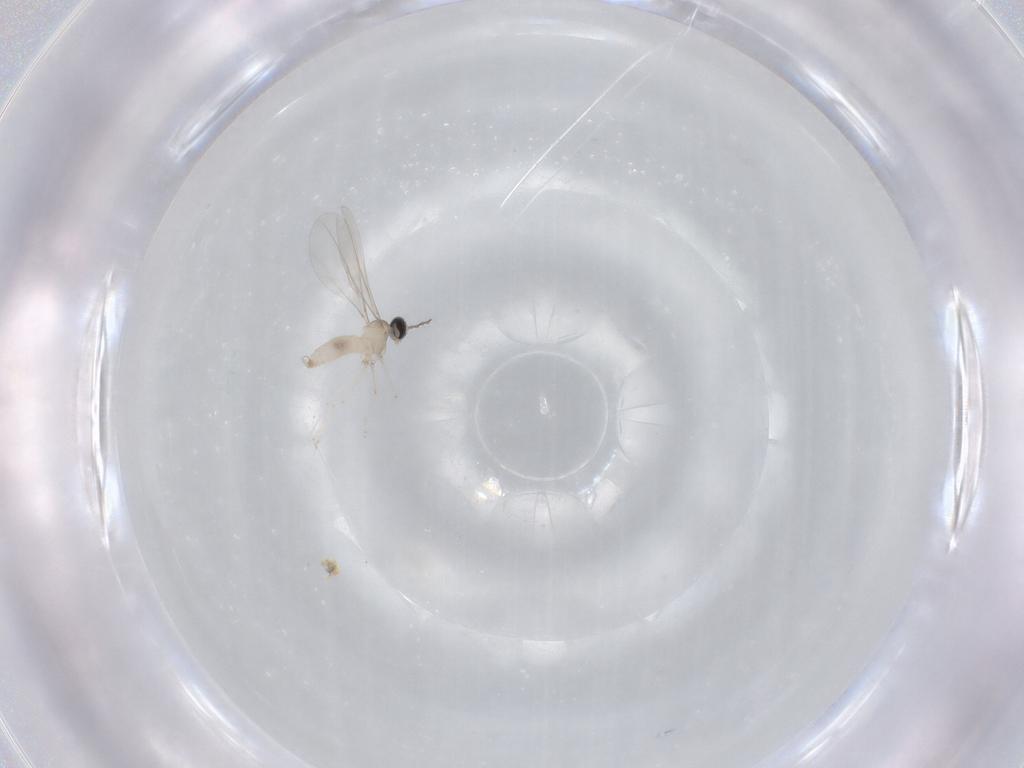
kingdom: Animalia
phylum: Arthropoda
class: Insecta
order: Diptera
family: Cecidomyiidae
